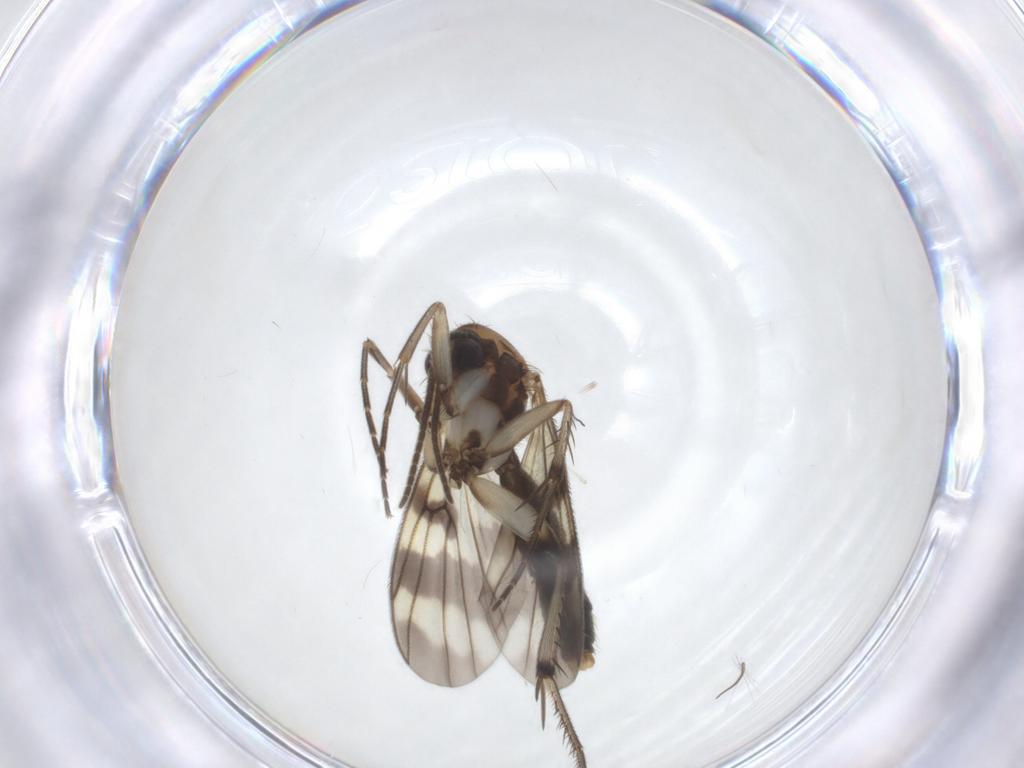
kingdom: Animalia
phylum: Arthropoda
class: Insecta
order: Diptera
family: Mycetophilidae
